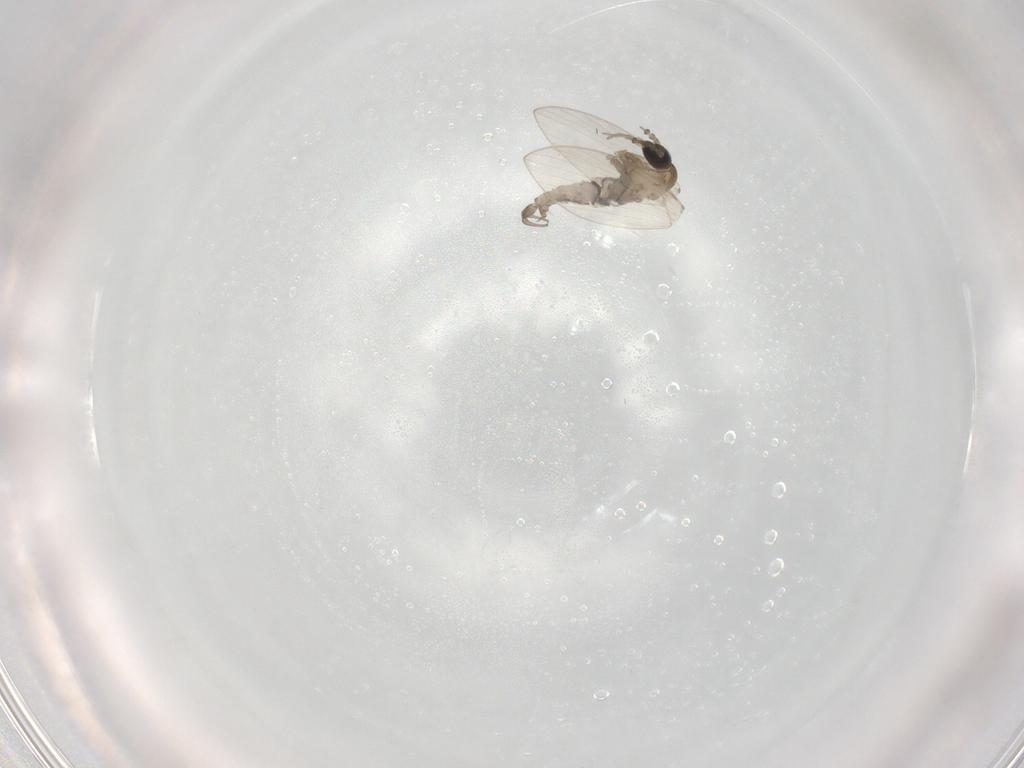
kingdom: Animalia
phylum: Arthropoda
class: Insecta
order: Diptera
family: Psychodidae
